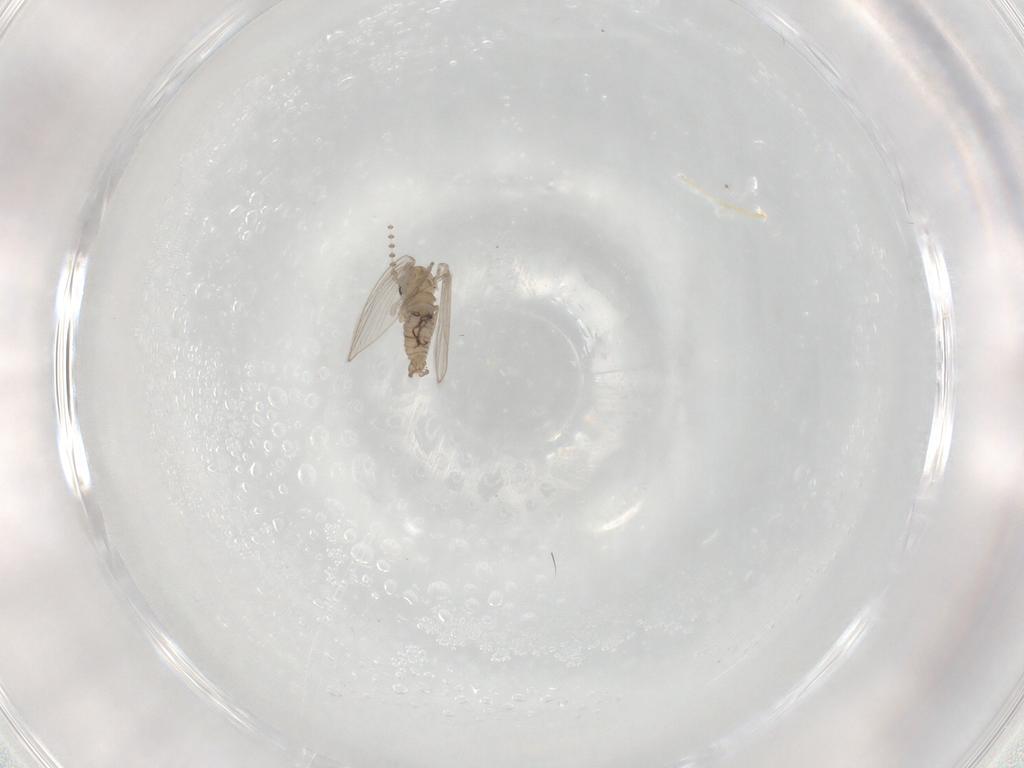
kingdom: Animalia
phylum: Arthropoda
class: Insecta
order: Diptera
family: Psychodidae
